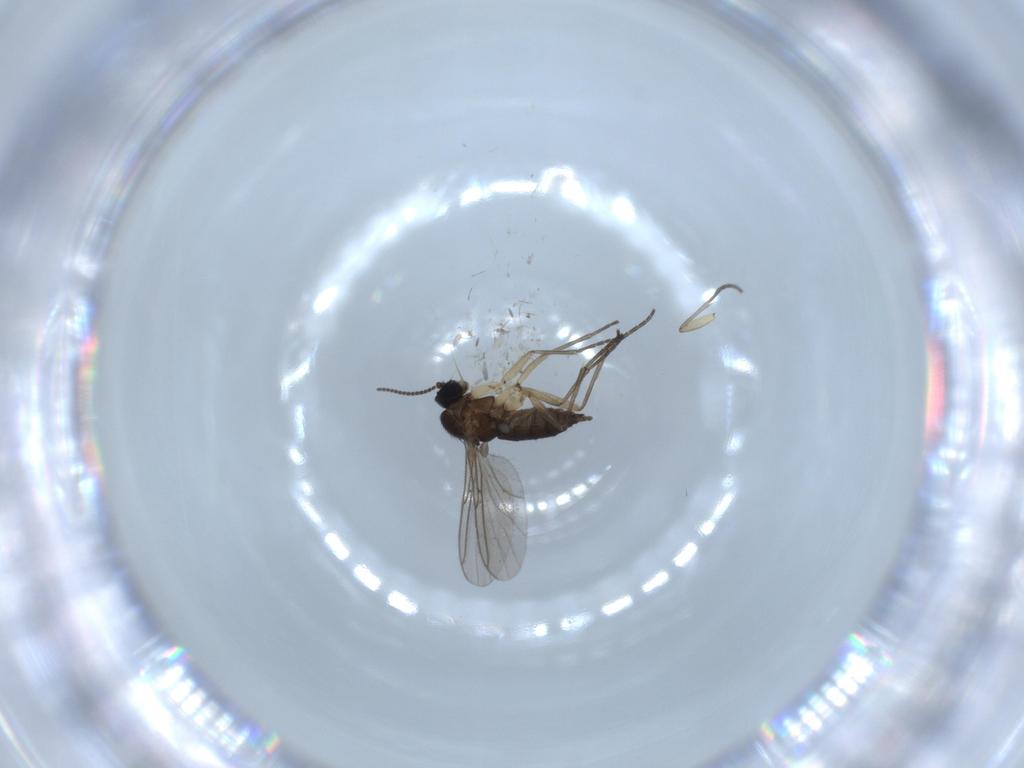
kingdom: Animalia
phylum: Arthropoda
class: Insecta
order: Diptera
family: Sciaridae
